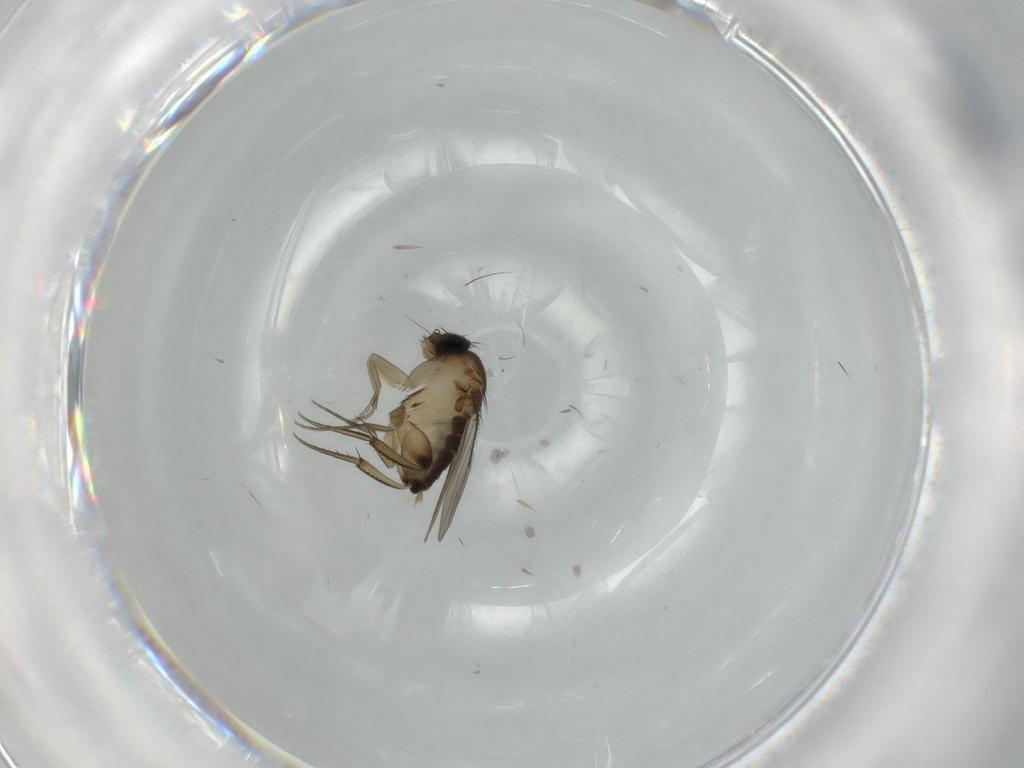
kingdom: Animalia
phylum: Arthropoda
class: Insecta
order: Diptera
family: Phoridae
